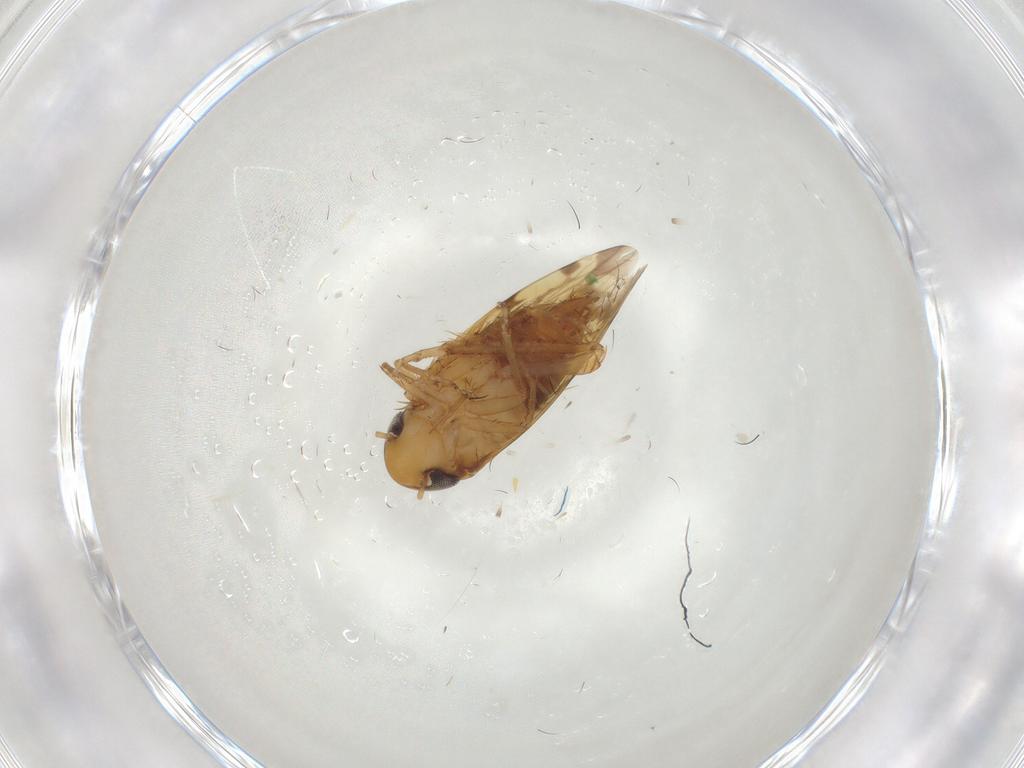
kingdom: Animalia
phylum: Arthropoda
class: Insecta
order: Hemiptera
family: Cicadellidae
